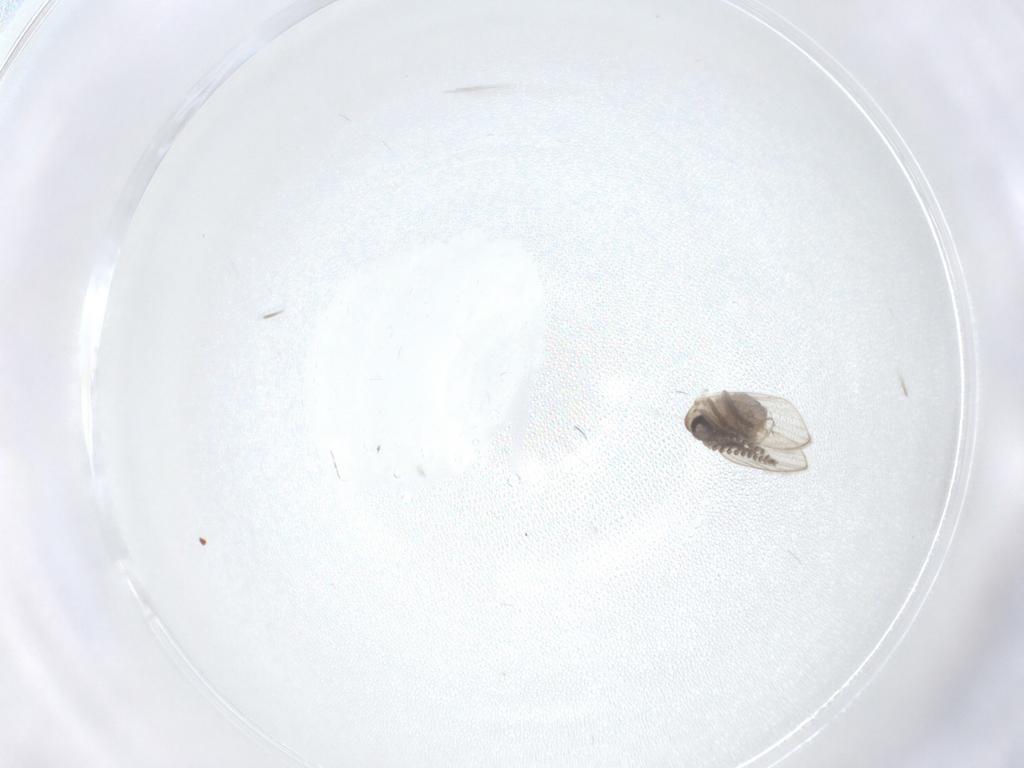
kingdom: Animalia
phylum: Arthropoda
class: Insecta
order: Diptera
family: Psychodidae
